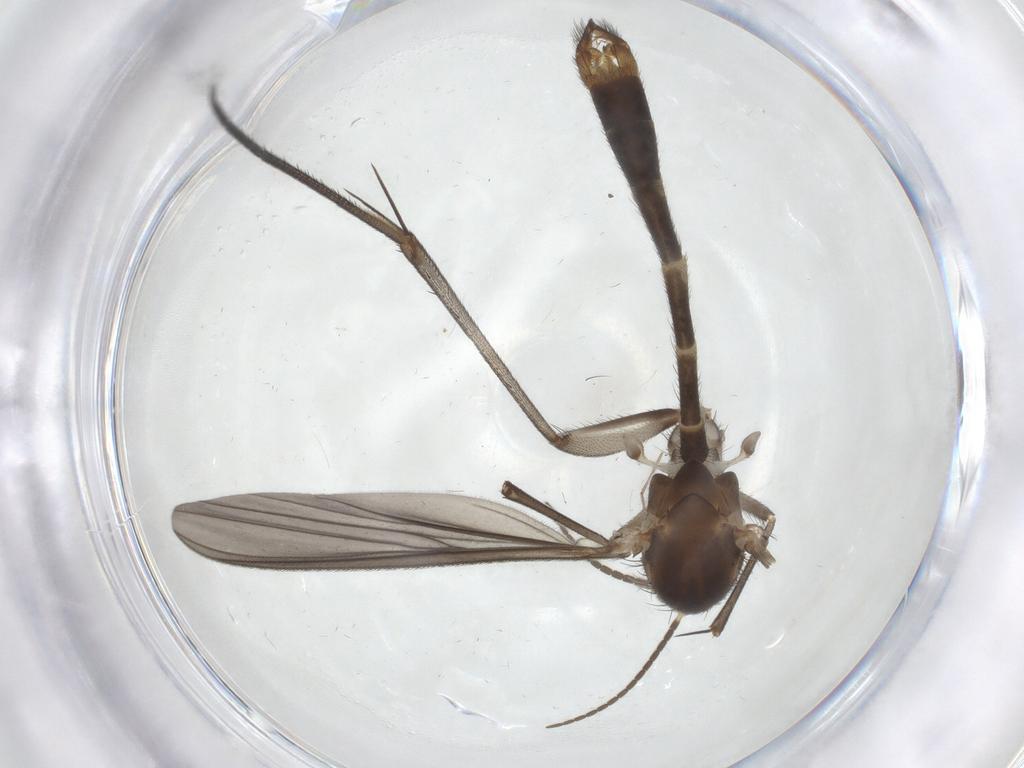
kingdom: Animalia
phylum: Arthropoda
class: Insecta
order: Diptera
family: Mycetophilidae
